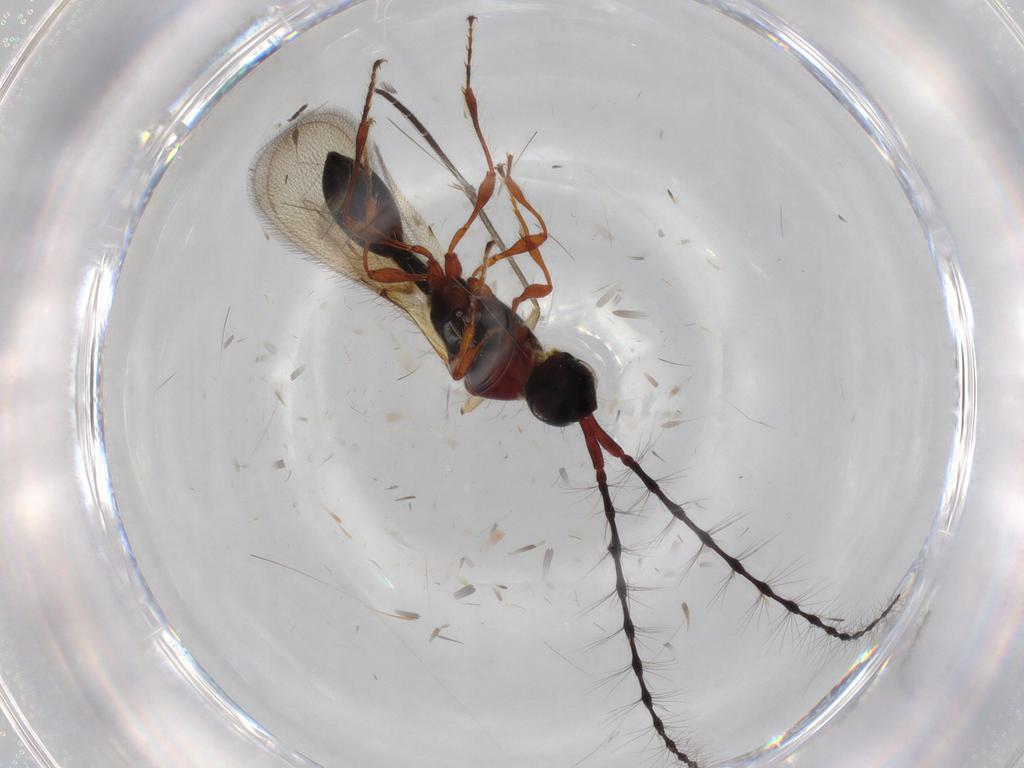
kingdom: Animalia
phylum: Arthropoda
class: Insecta
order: Hymenoptera
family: Diapriidae
